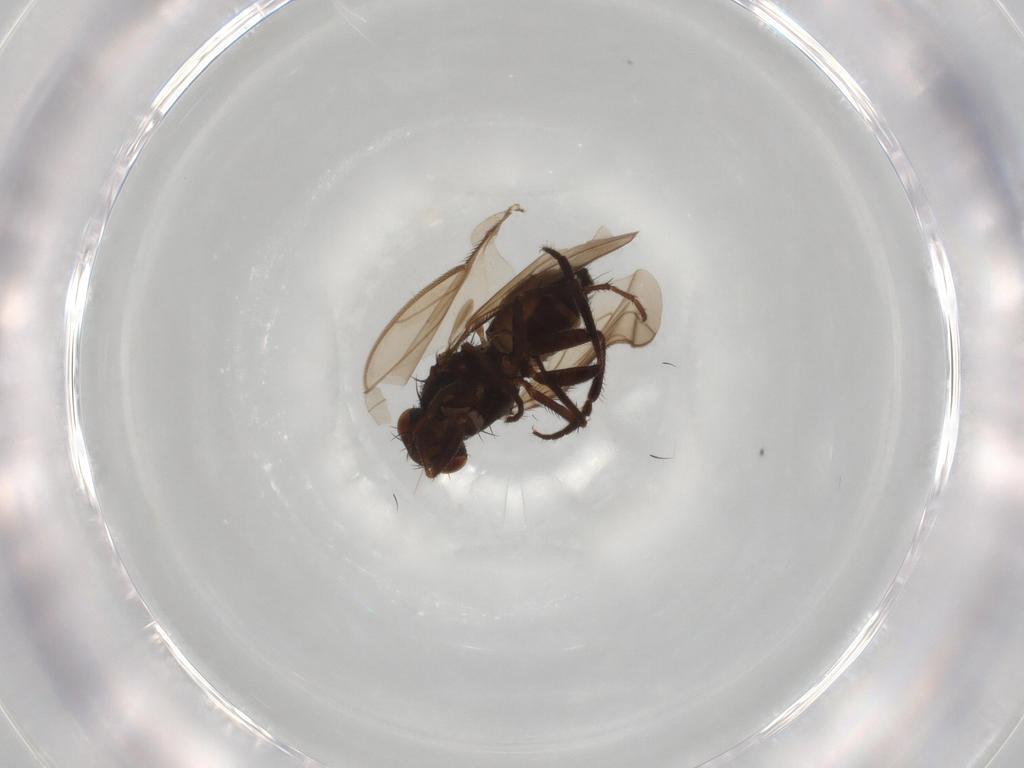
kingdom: Animalia
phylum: Arthropoda
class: Insecta
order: Diptera
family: Sphaeroceridae
